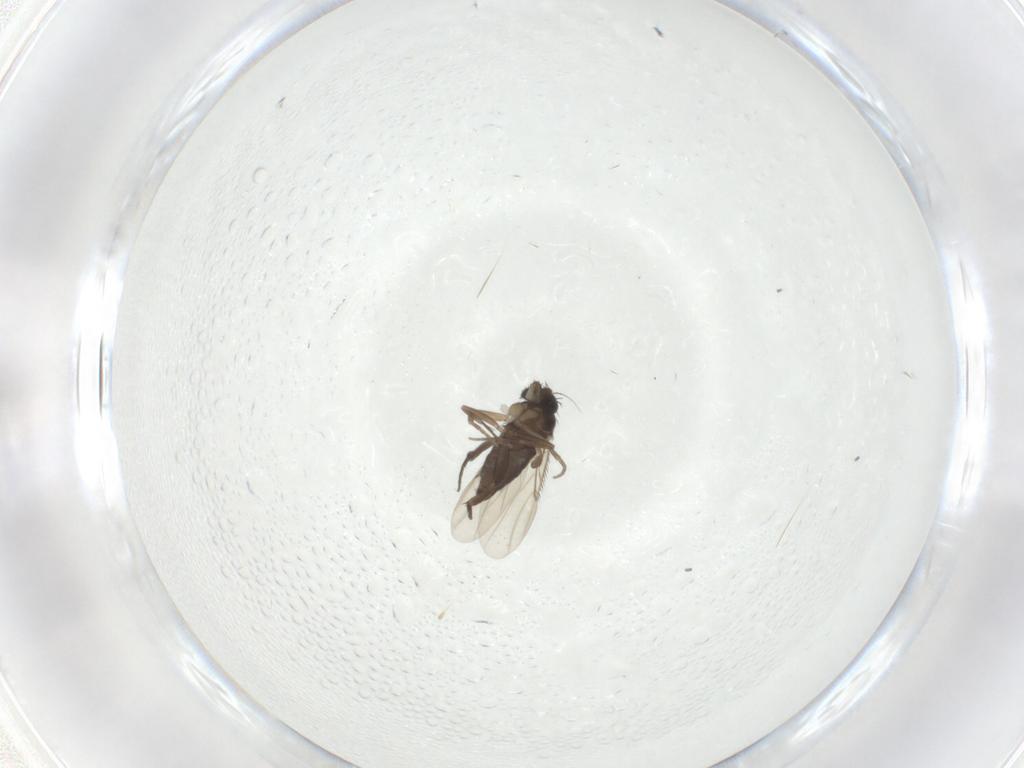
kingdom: Animalia
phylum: Arthropoda
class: Insecta
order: Diptera
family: Phoridae
